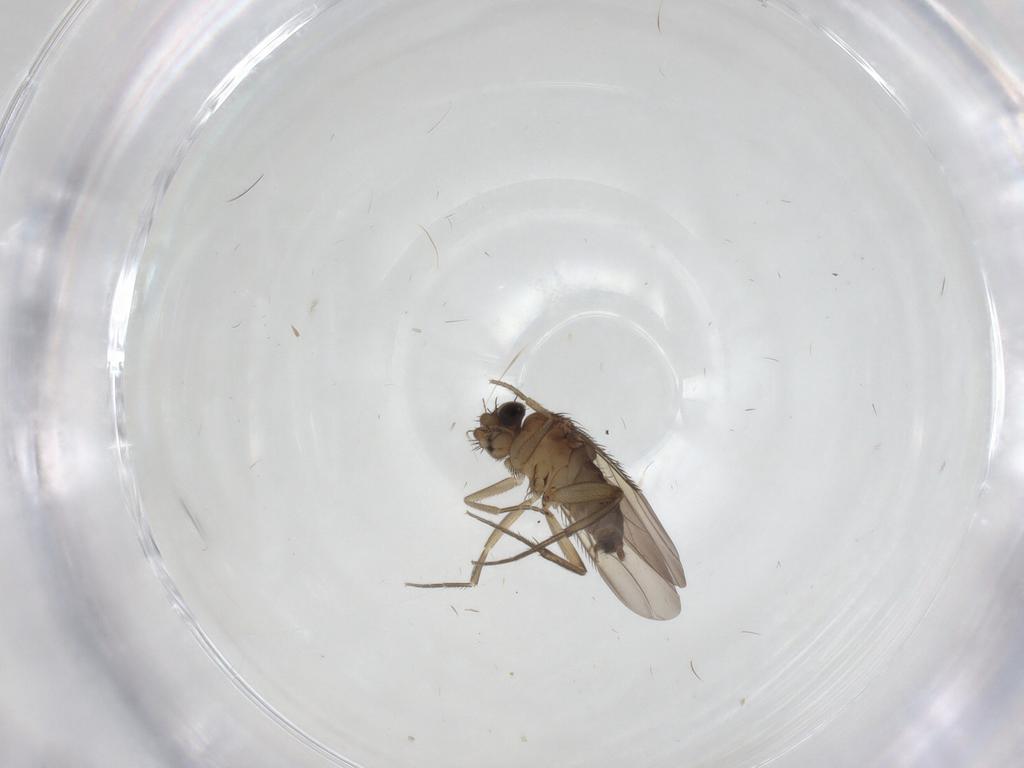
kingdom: Animalia
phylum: Arthropoda
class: Insecta
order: Diptera
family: Phoridae
